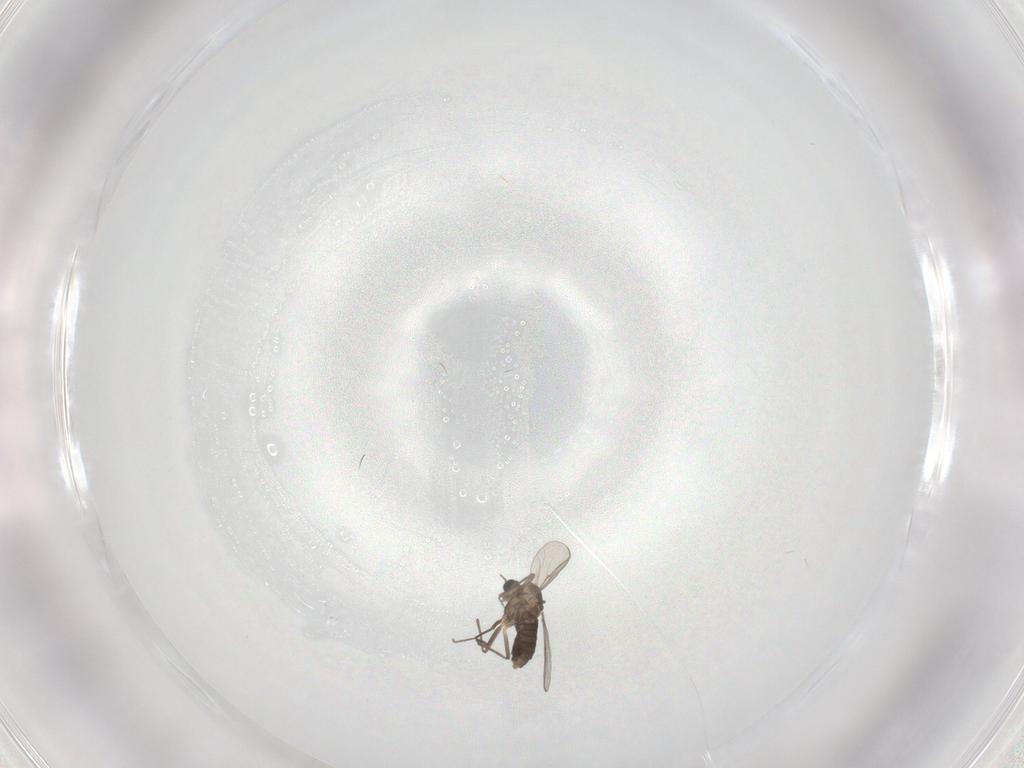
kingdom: Animalia
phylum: Arthropoda
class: Insecta
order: Diptera
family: Chironomidae
